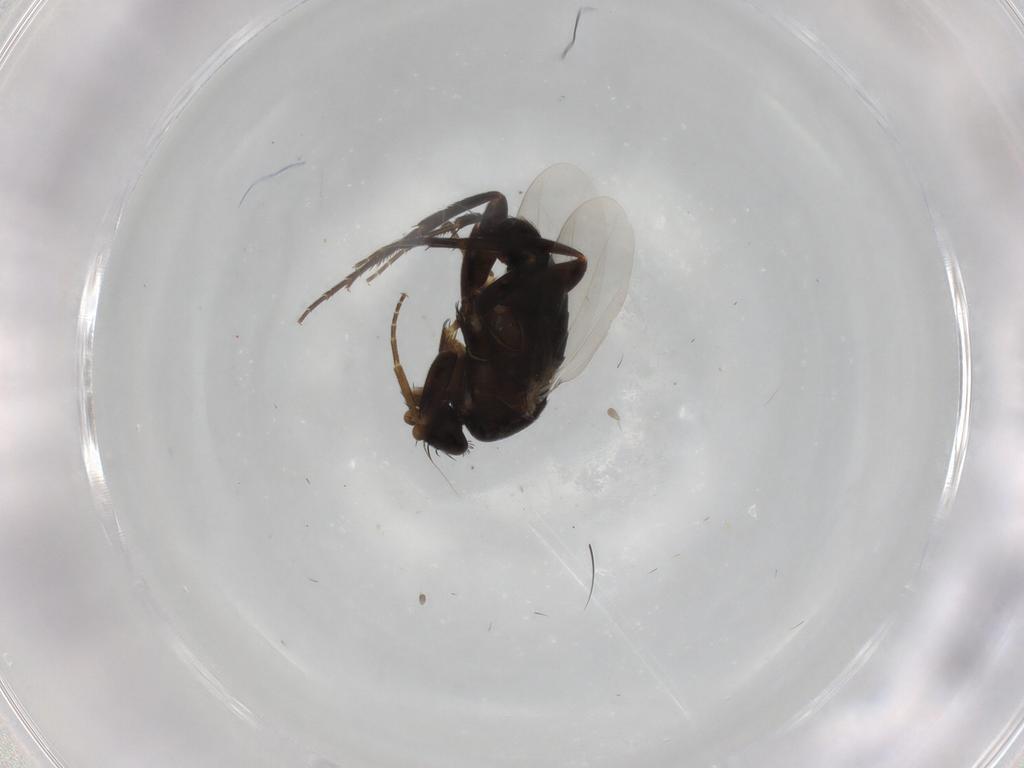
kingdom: Animalia
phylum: Arthropoda
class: Insecta
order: Diptera
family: Phoridae
